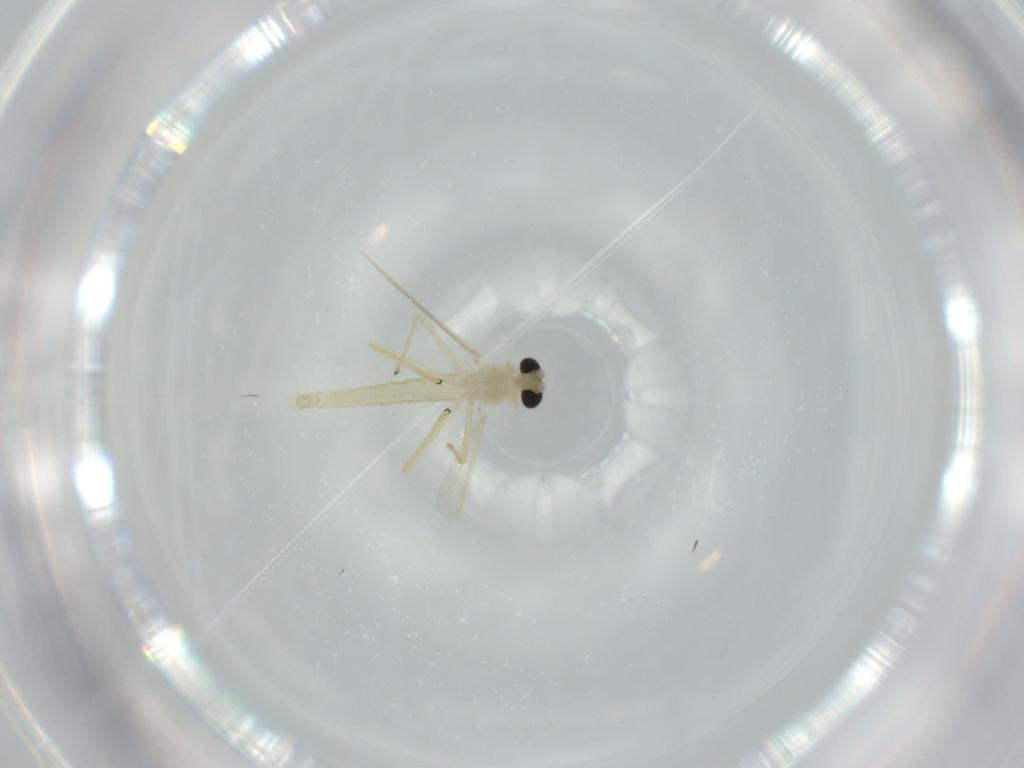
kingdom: Animalia
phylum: Arthropoda
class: Insecta
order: Diptera
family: Chironomidae
